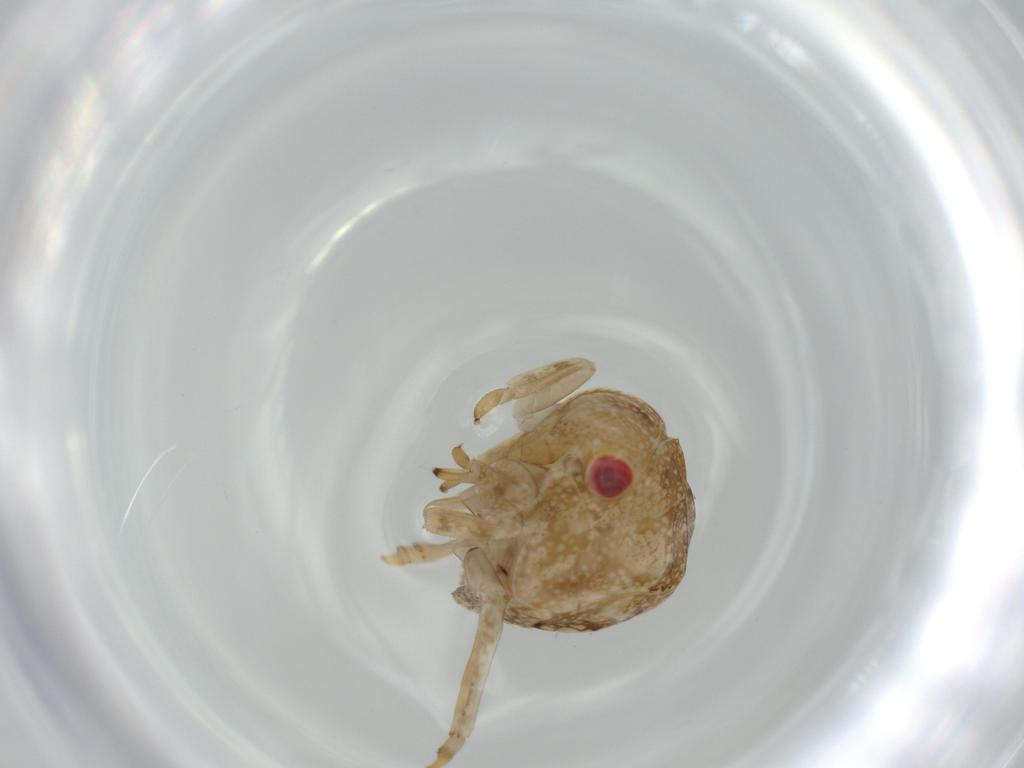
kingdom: Animalia
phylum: Arthropoda
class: Insecta
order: Hemiptera
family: Acanaloniidae
